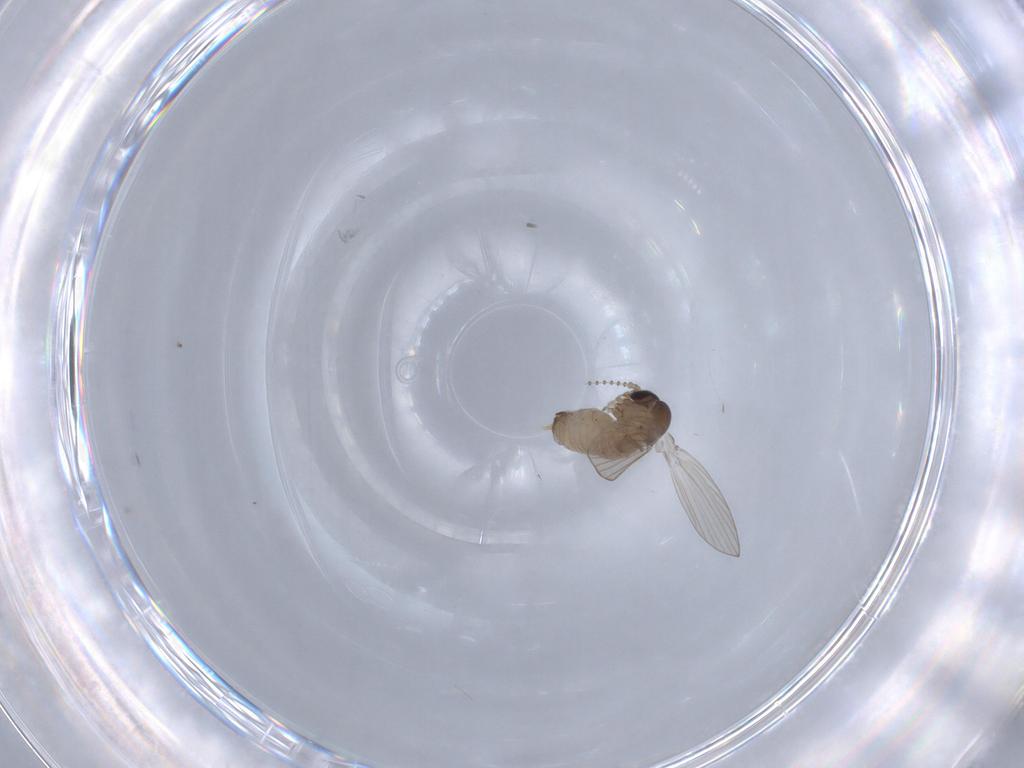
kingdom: Animalia
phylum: Arthropoda
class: Insecta
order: Diptera
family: Psychodidae
